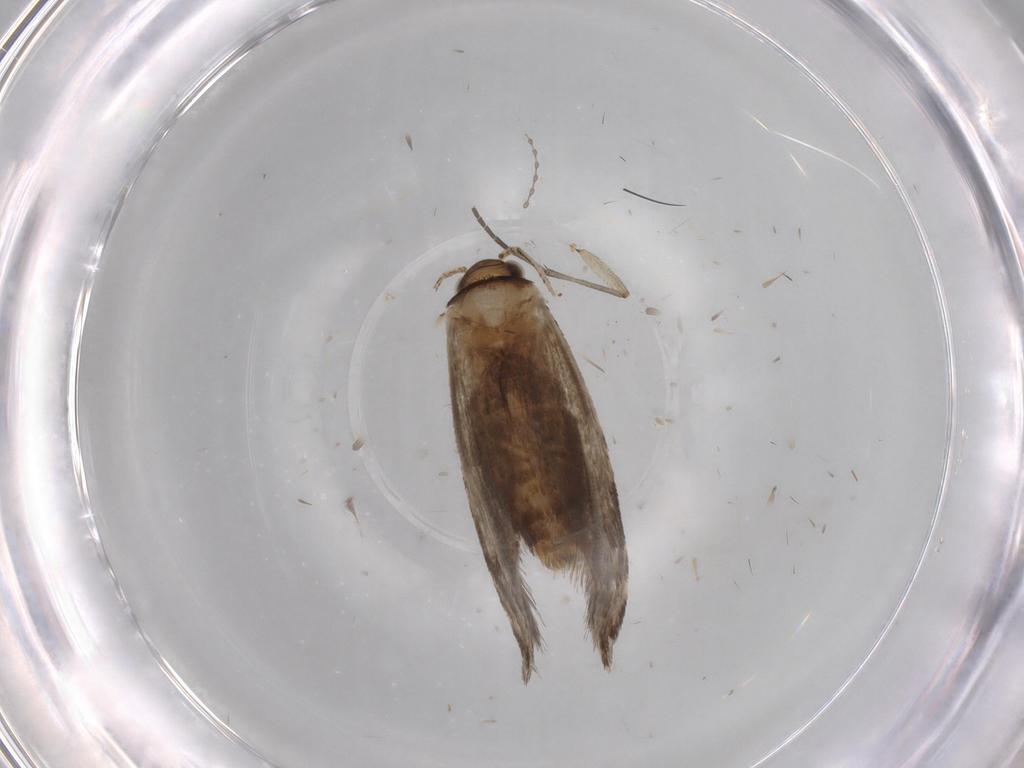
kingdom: Animalia
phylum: Arthropoda
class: Insecta
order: Lepidoptera
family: Tineidae
